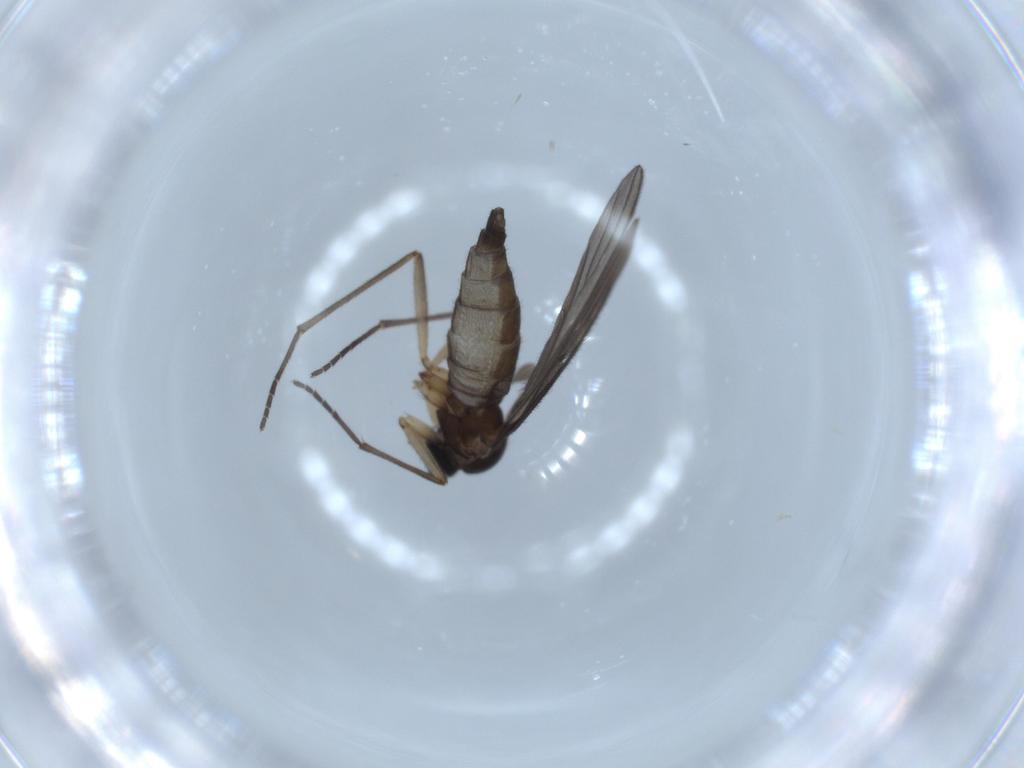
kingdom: Animalia
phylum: Arthropoda
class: Insecta
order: Diptera
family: Sciaridae
